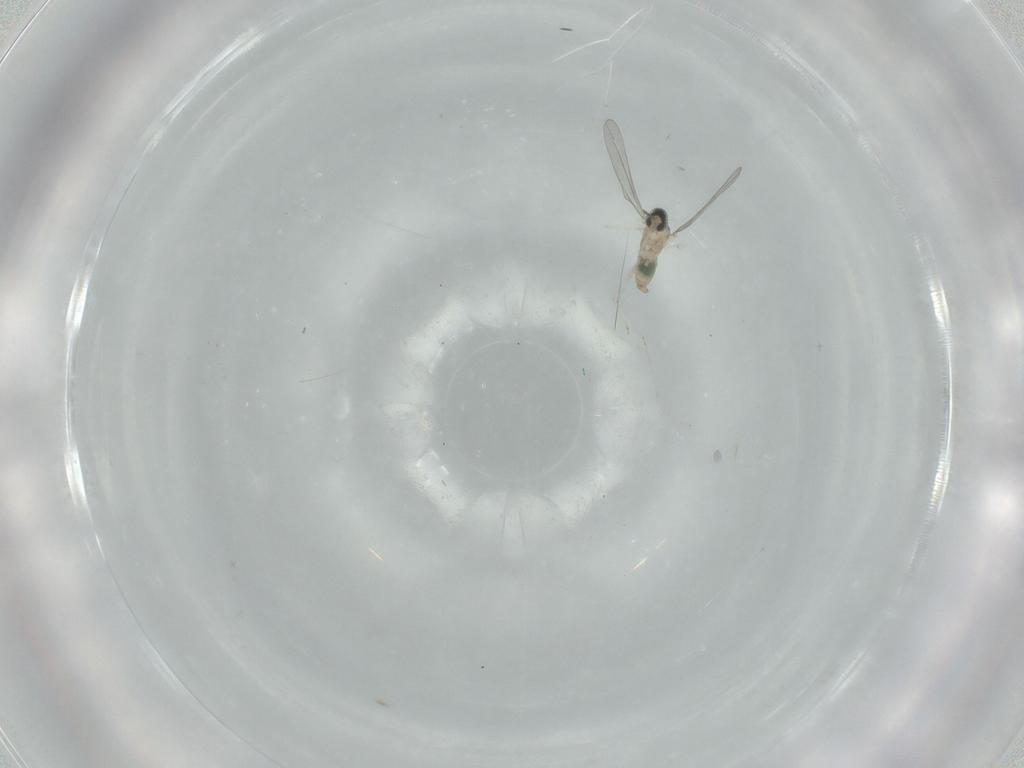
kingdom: Animalia
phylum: Arthropoda
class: Insecta
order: Diptera
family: Cecidomyiidae
